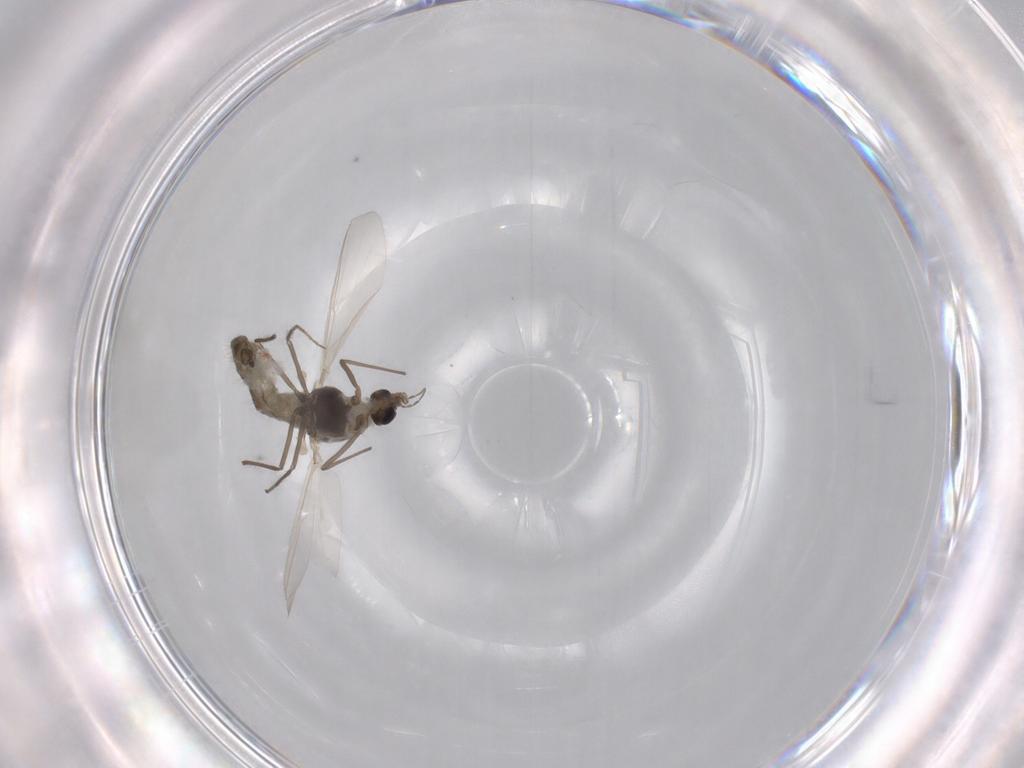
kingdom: Animalia
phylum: Arthropoda
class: Insecta
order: Diptera
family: Chironomidae
